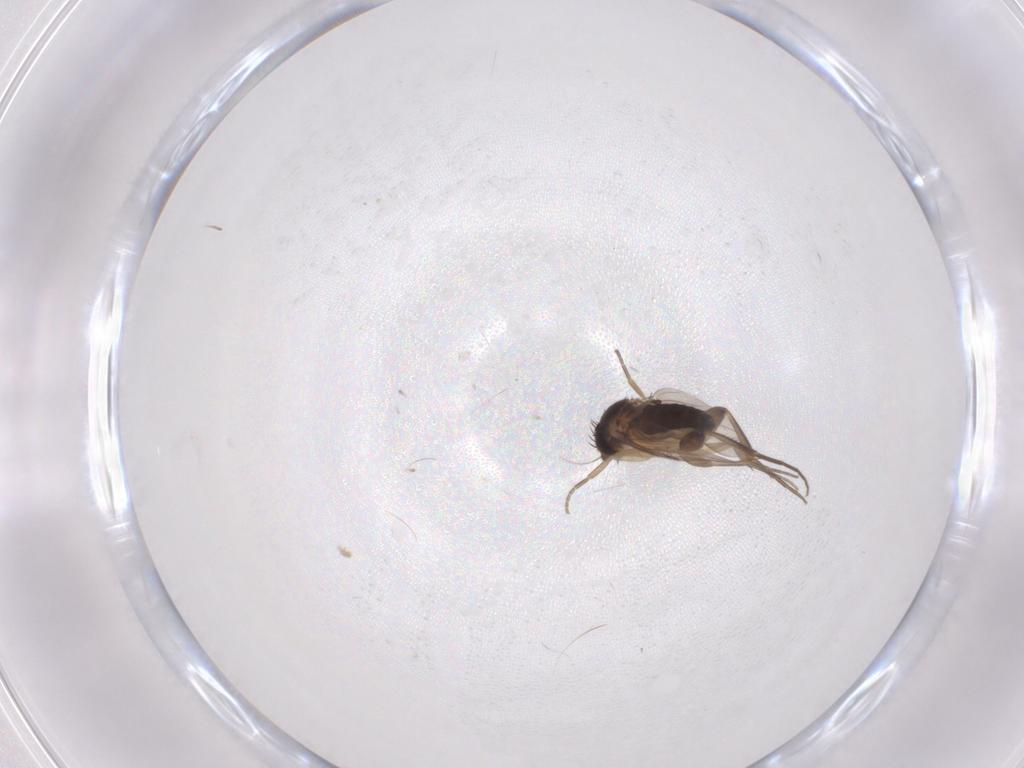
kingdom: Animalia
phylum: Arthropoda
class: Insecta
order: Diptera
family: Phoridae
